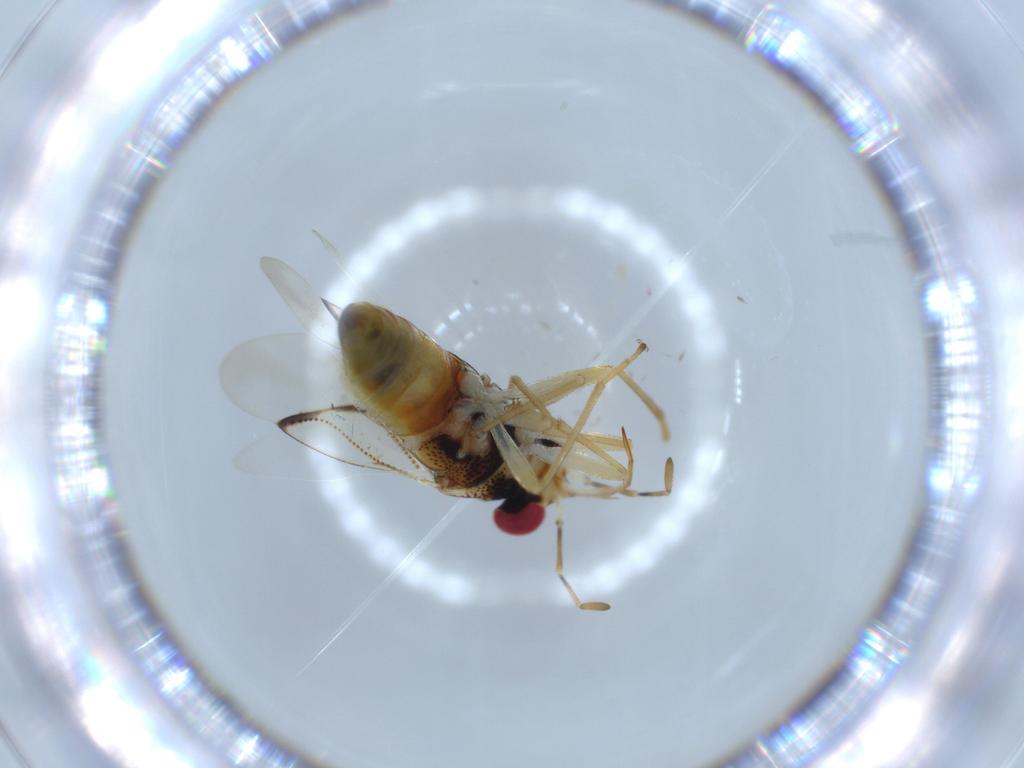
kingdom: Animalia
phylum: Arthropoda
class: Insecta
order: Hemiptera
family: Geocoridae
